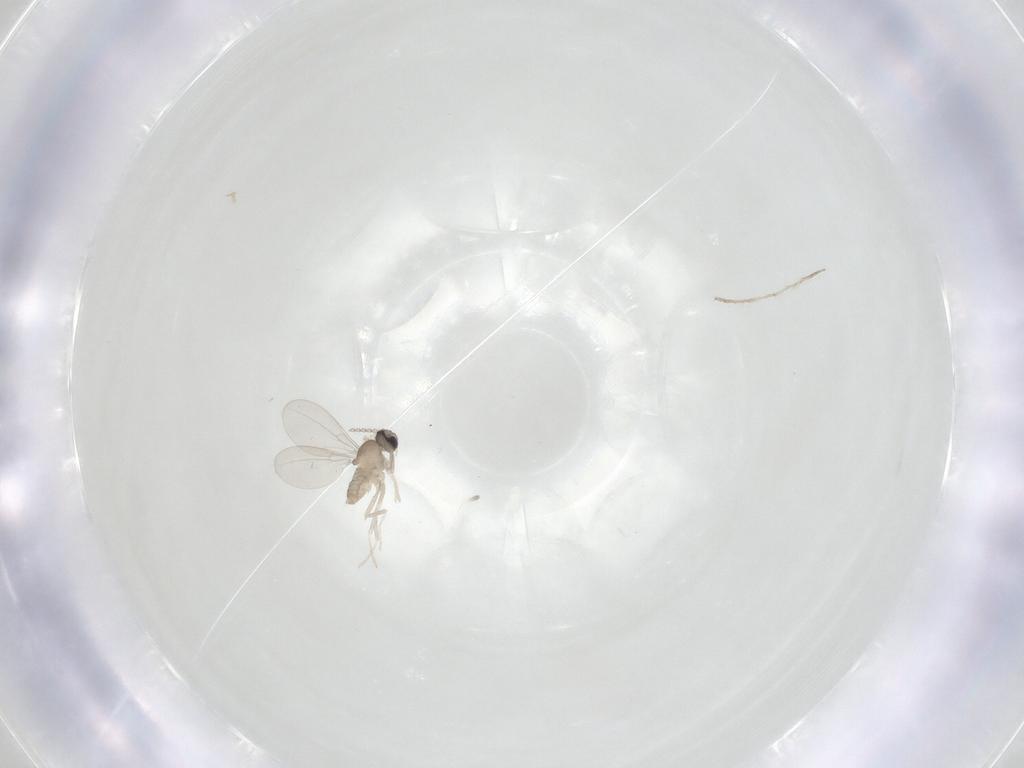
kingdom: Animalia
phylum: Arthropoda
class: Insecta
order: Diptera
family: Cecidomyiidae
